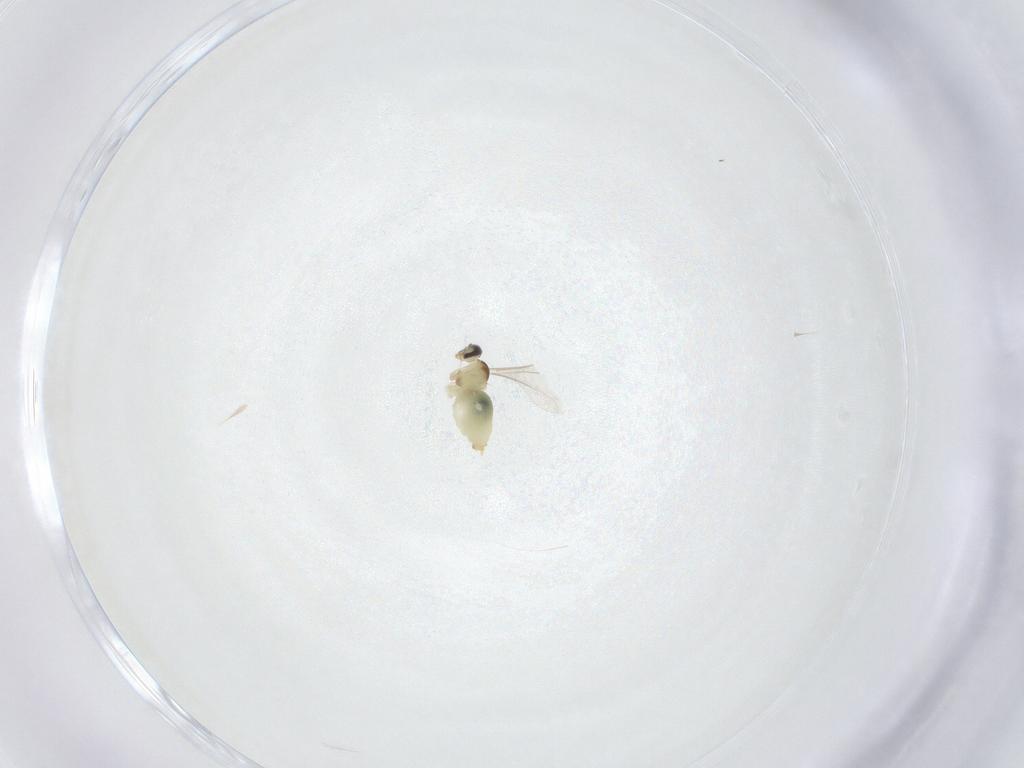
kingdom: Animalia
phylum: Arthropoda
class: Insecta
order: Diptera
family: Cecidomyiidae
